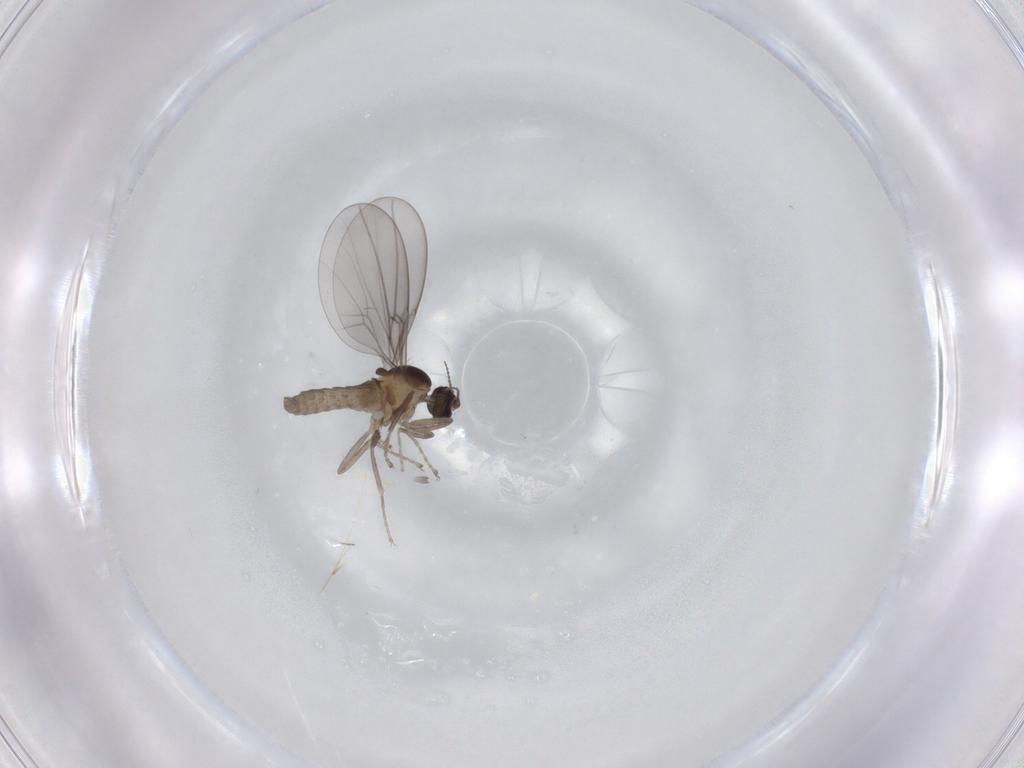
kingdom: Animalia
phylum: Arthropoda
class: Insecta
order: Diptera
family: Cecidomyiidae
